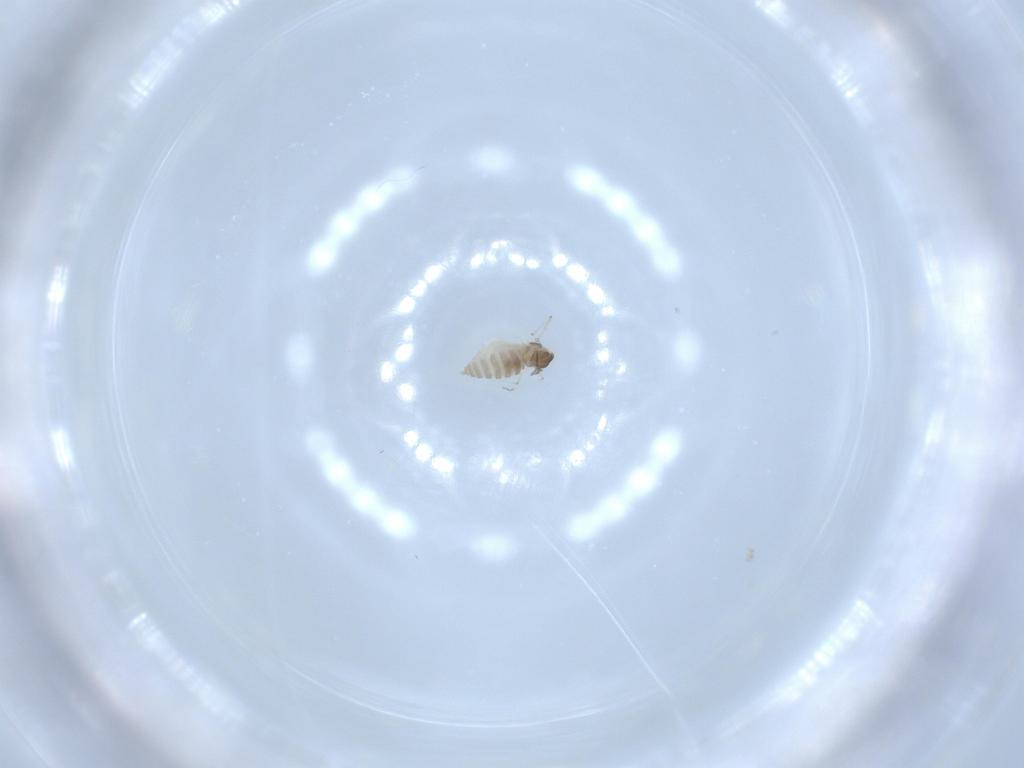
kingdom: Animalia
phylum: Arthropoda
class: Insecta
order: Diptera
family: Cecidomyiidae
